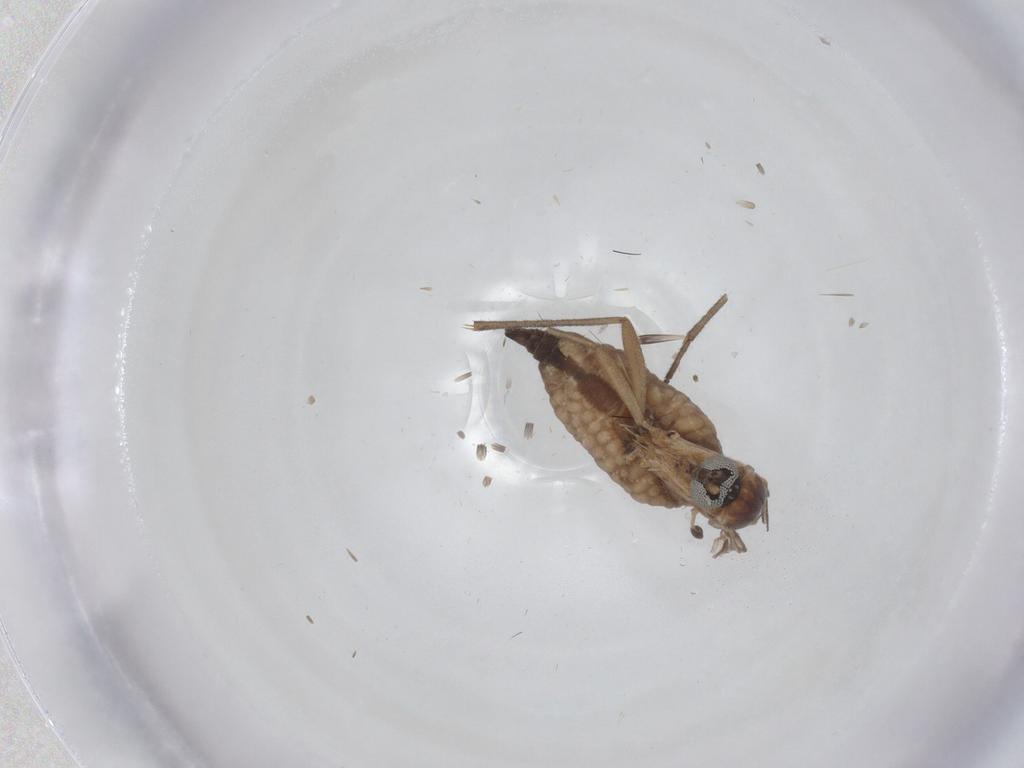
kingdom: Animalia
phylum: Arthropoda
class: Insecta
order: Diptera
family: Sciaridae
